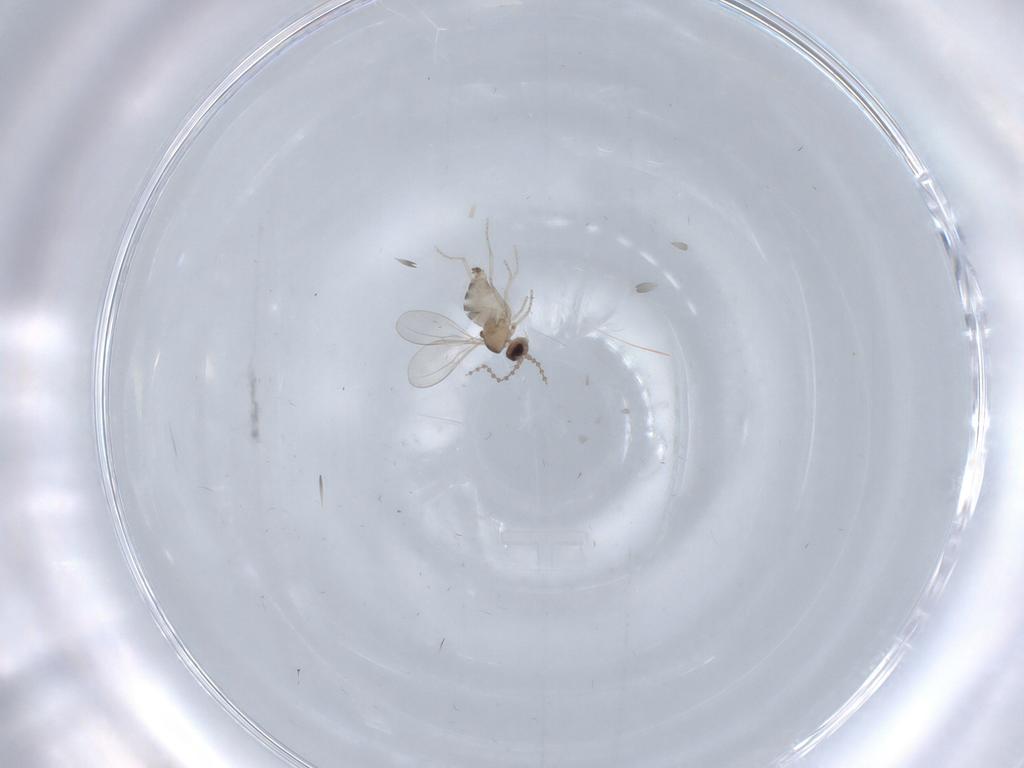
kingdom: Animalia
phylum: Arthropoda
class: Insecta
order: Diptera
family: Cecidomyiidae
